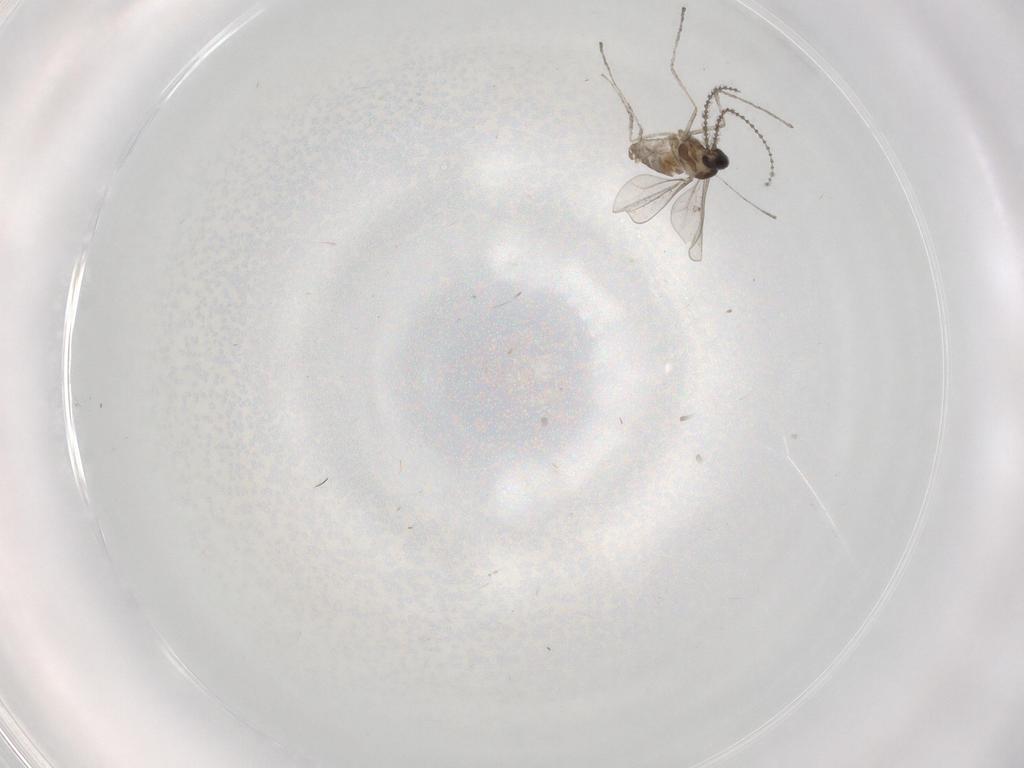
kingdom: Animalia
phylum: Arthropoda
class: Insecta
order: Diptera
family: Cecidomyiidae
